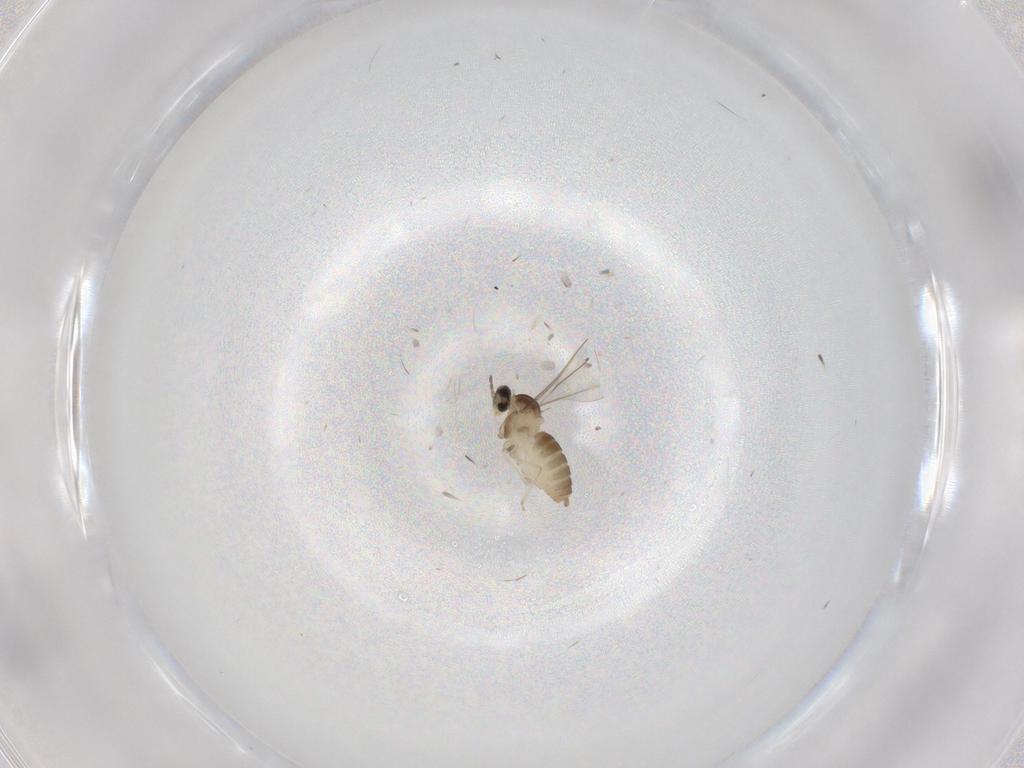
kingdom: Animalia
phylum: Arthropoda
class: Insecta
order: Diptera
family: Cecidomyiidae
